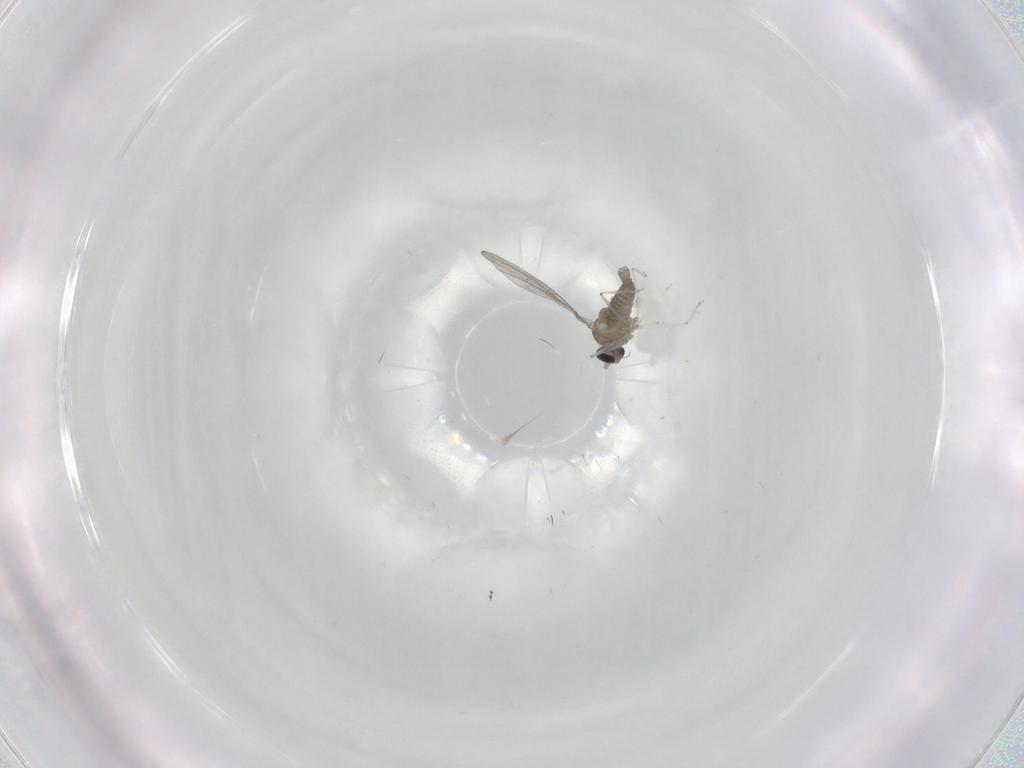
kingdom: Animalia
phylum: Arthropoda
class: Insecta
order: Diptera
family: Cecidomyiidae
